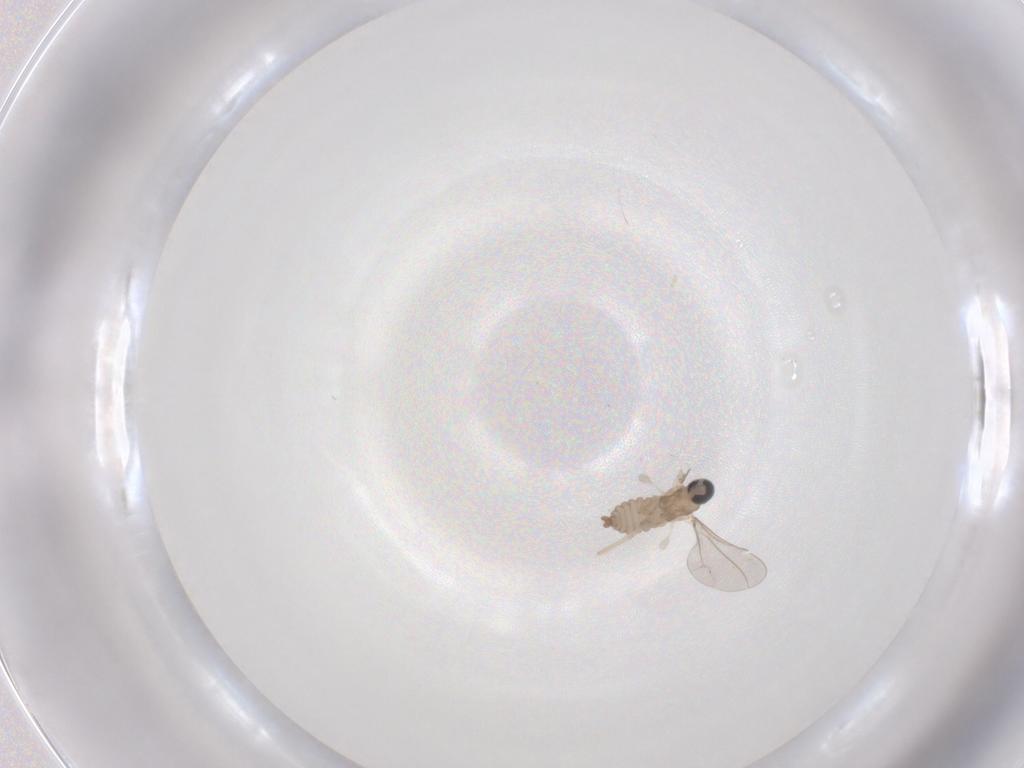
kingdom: Animalia
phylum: Arthropoda
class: Insecta
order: Diptera
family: Cecidomyiidae
